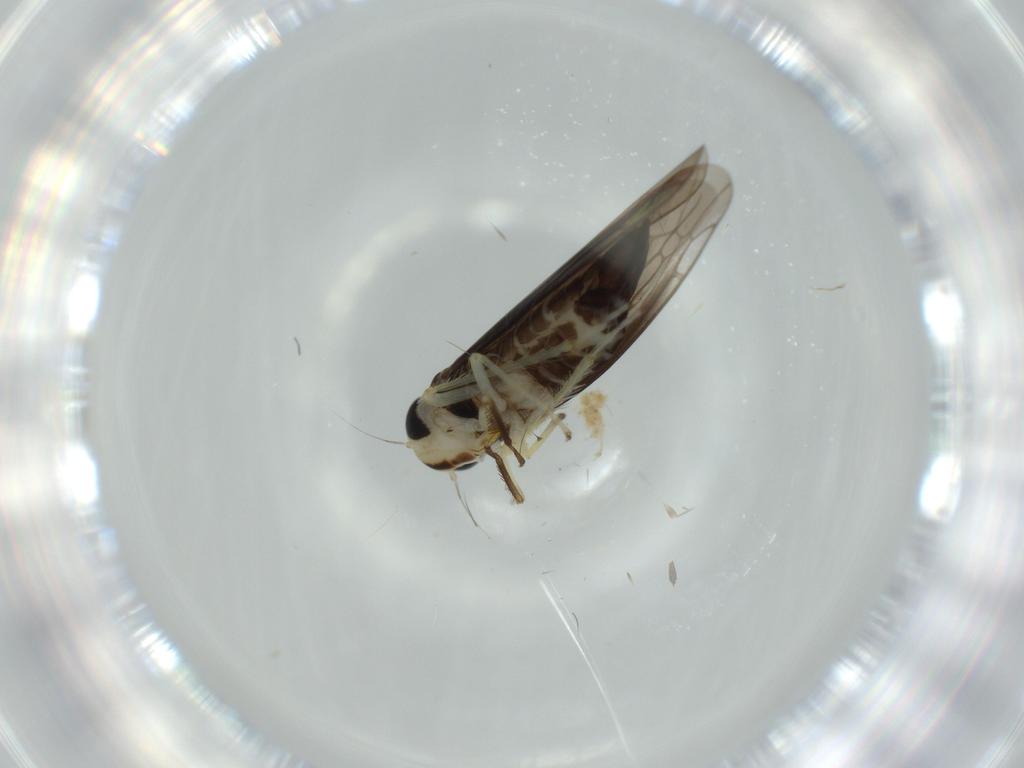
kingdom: Animalia
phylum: Arthropoda
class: Insecta
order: Hemiptera
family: Cicadellidae
